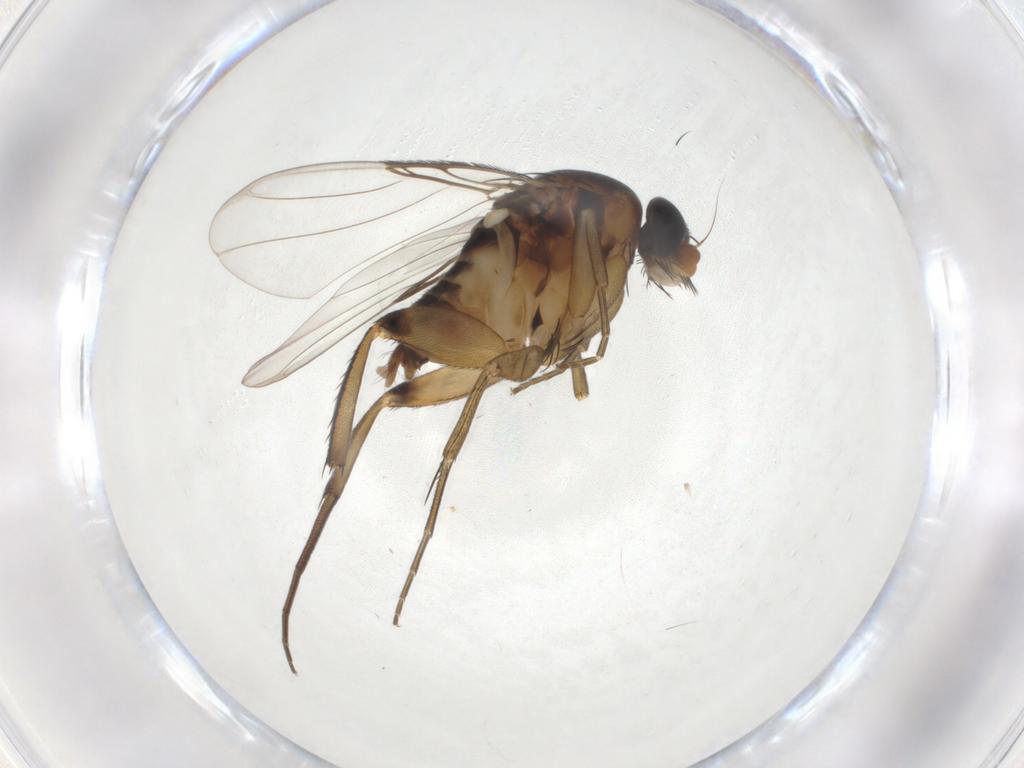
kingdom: Animalia
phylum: Arthropoda
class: Insecta
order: Diptera
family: Phoridae
